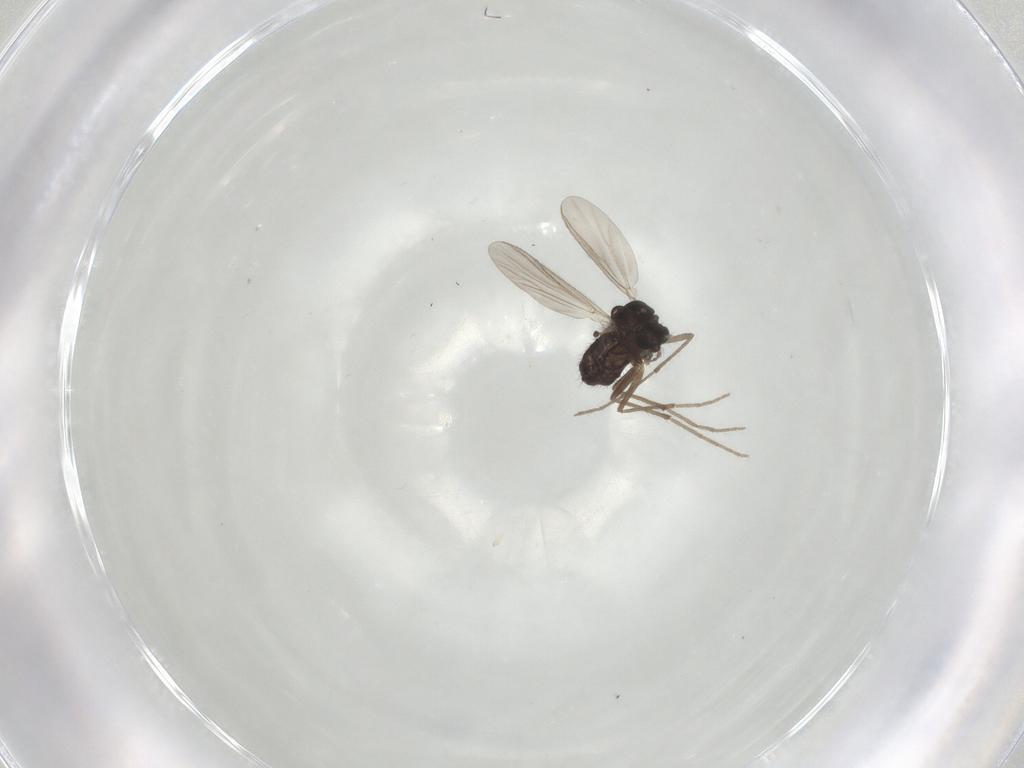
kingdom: Animalia
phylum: Arthropoda
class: Insecta
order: Diptera
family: Chironomidae
